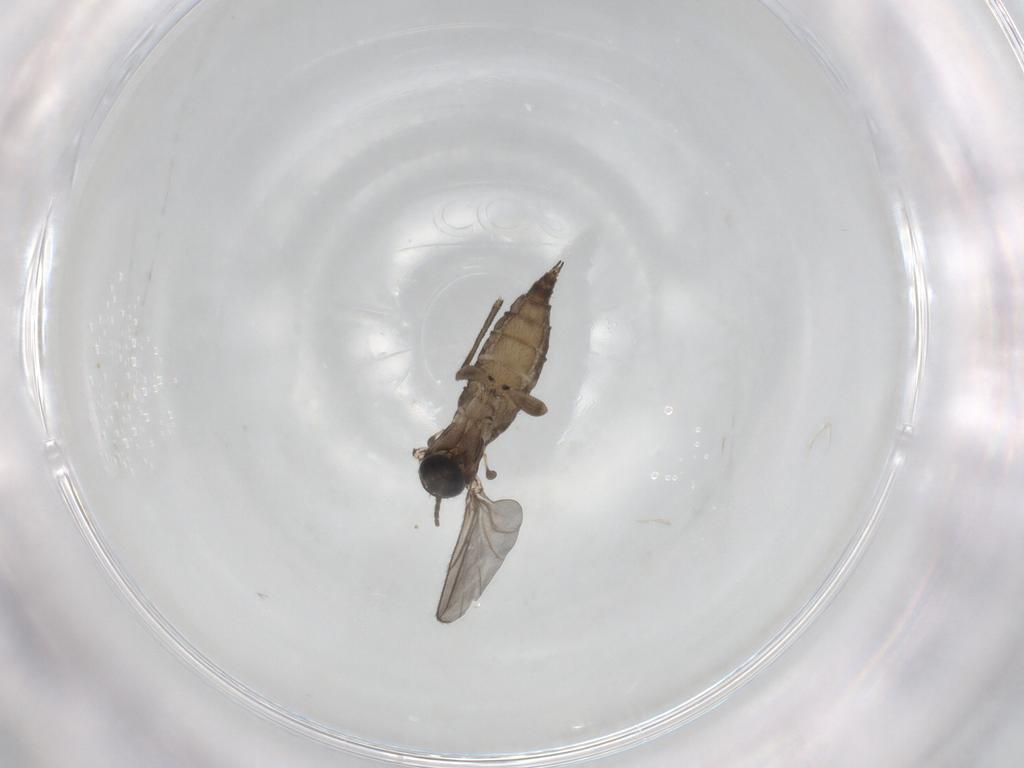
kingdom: Animalia
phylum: Arthropoda
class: Insecta
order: Diptera
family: Sciaridae
